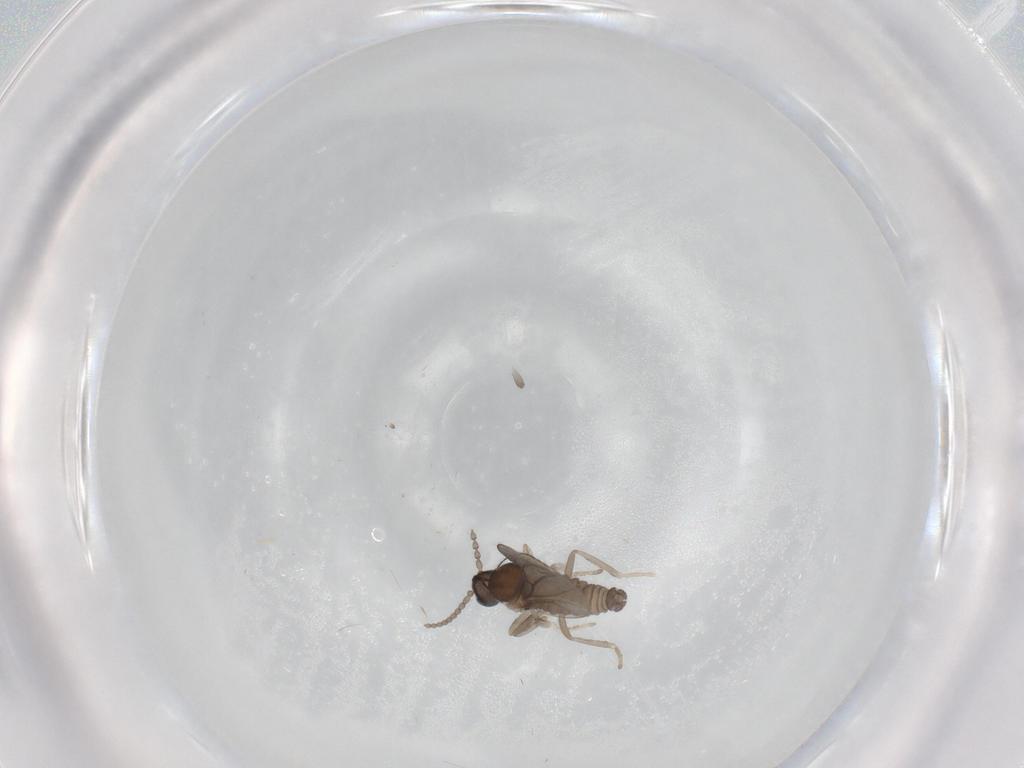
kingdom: Animalia
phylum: Arthropoda
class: Insecta
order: Diptera
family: Cecidomyiidae
